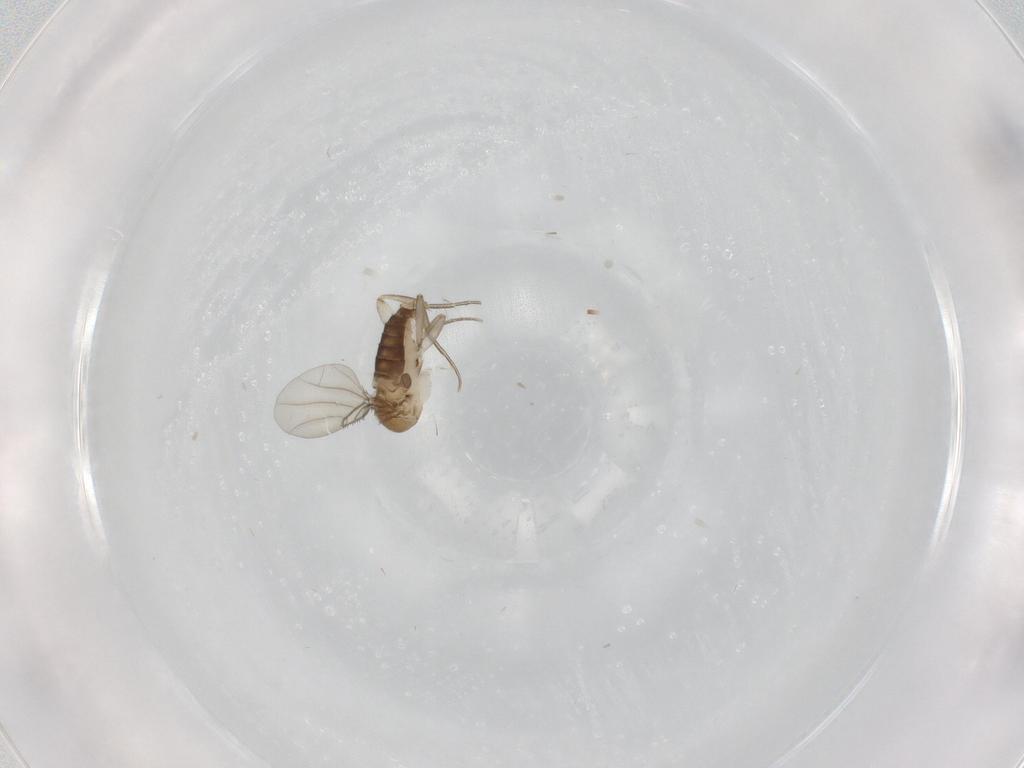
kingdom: Animalia
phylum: Arthropoda
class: Insecta
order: Diptera
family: Phoridae
